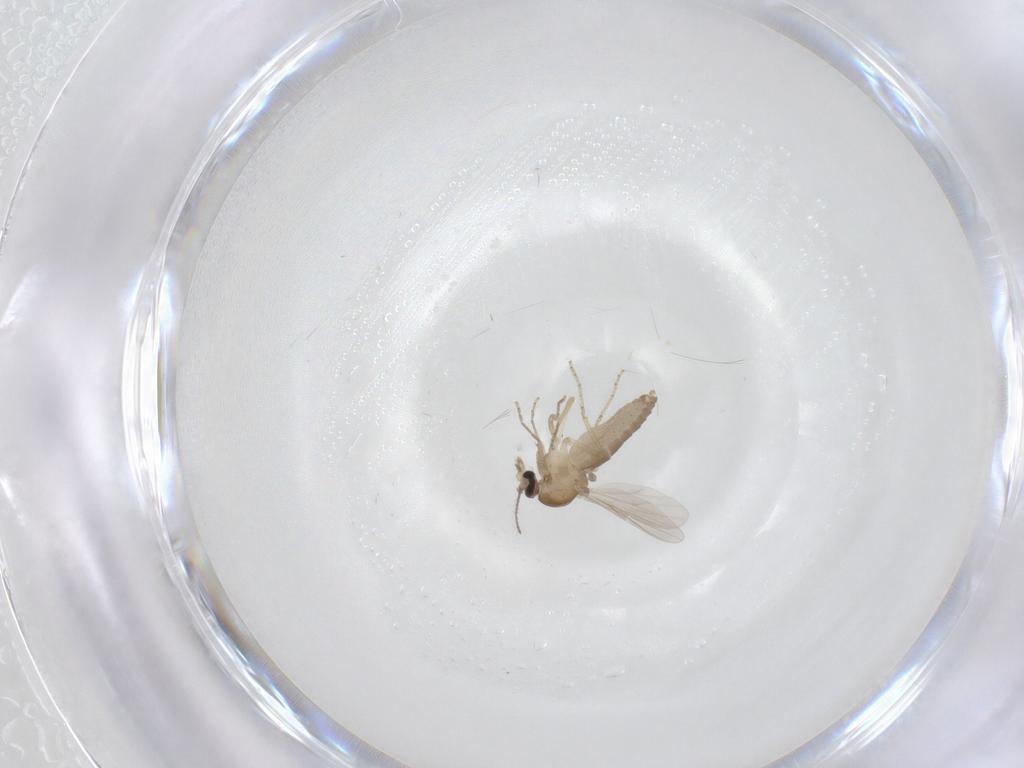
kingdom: Animalia
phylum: Arthropoda
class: Insecta
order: Diptera
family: Ceratopogonidae
